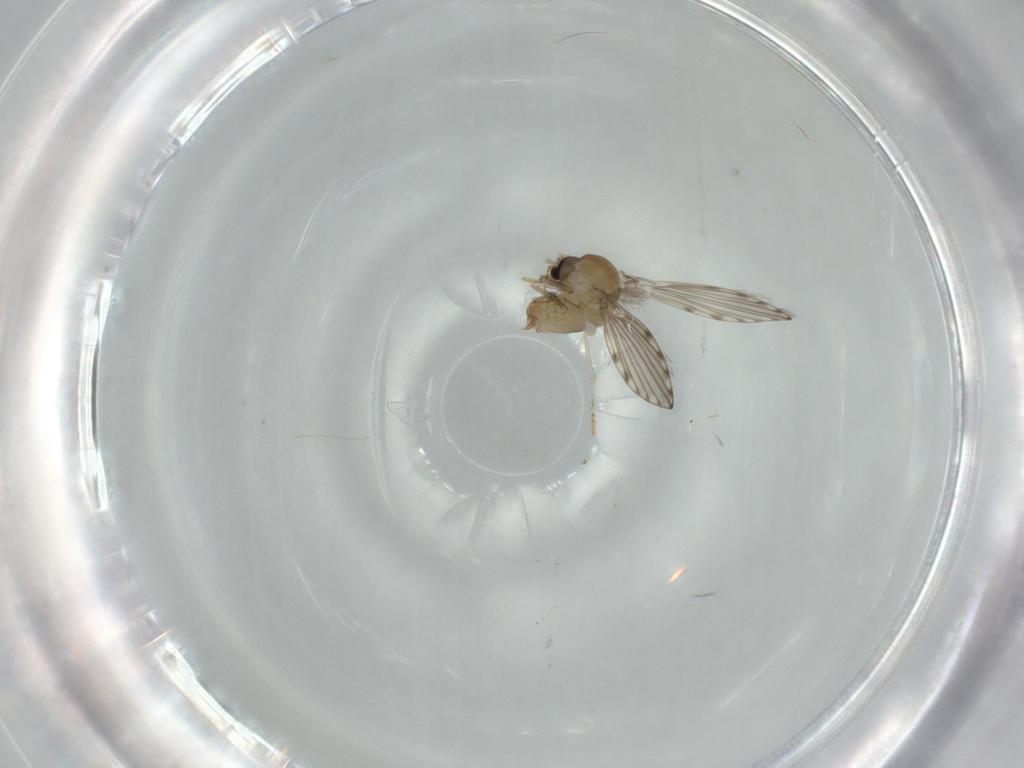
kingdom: Animalia
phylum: Arthropoda
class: Insecta
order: Diptera
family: Psychodidae
